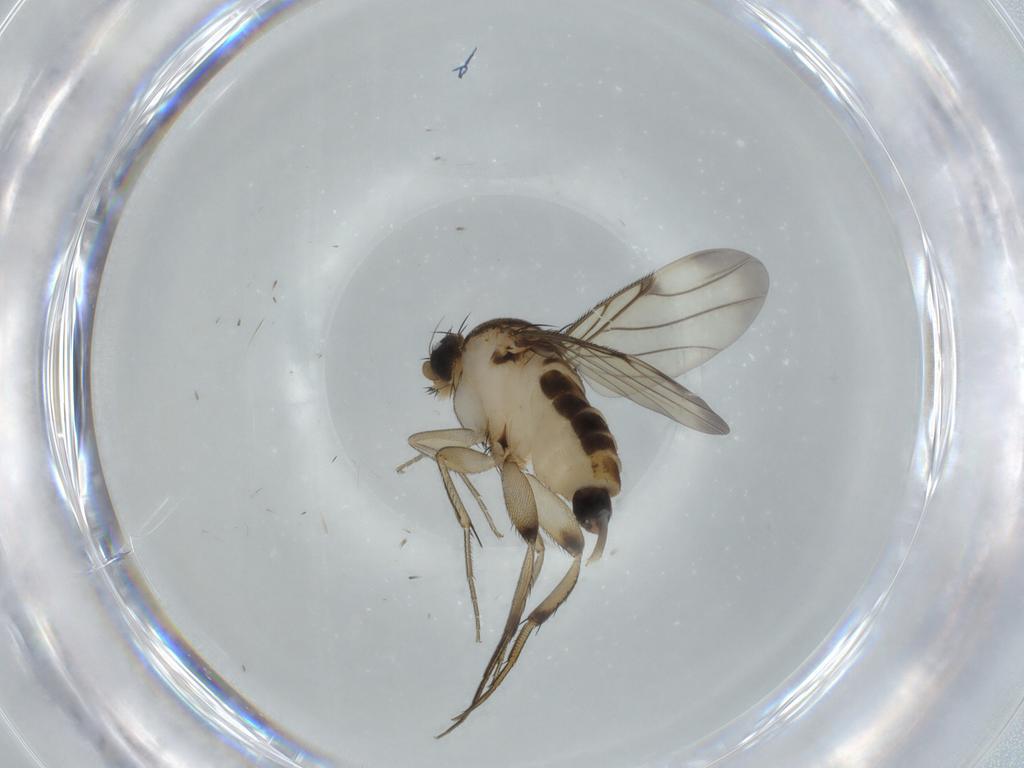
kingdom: Animalia
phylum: Arthropoda
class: Insecta
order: Diptera
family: Phoridae
